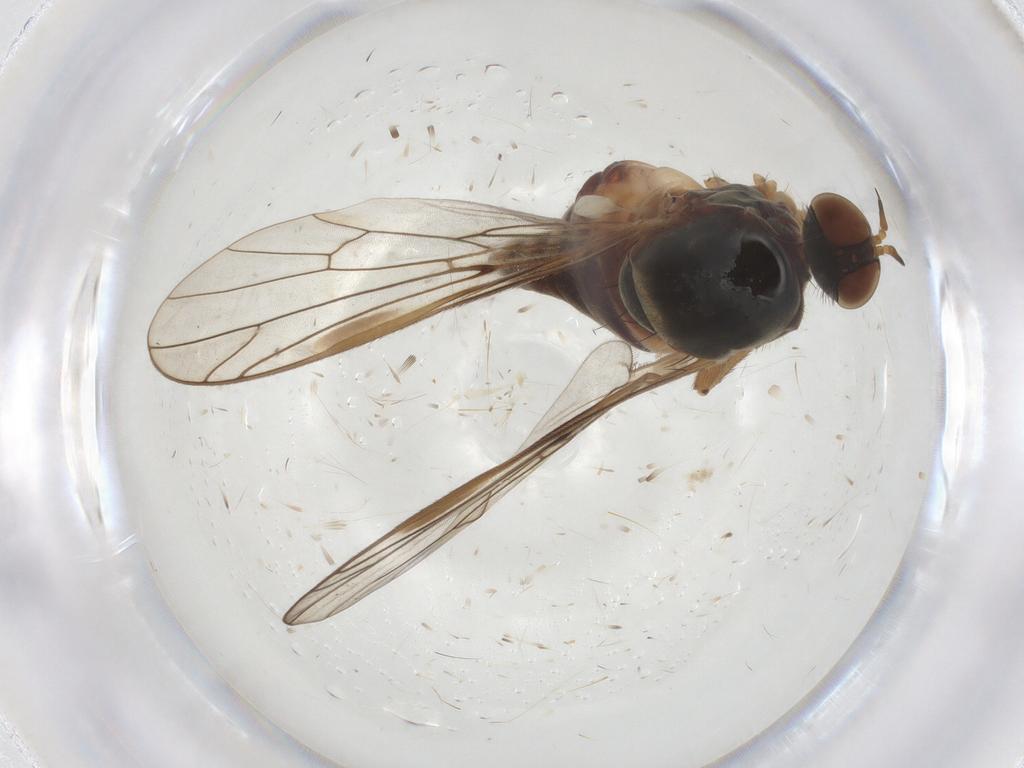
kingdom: Animalia
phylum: Arthropoda
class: Insecta
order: Diptera
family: Empididae
